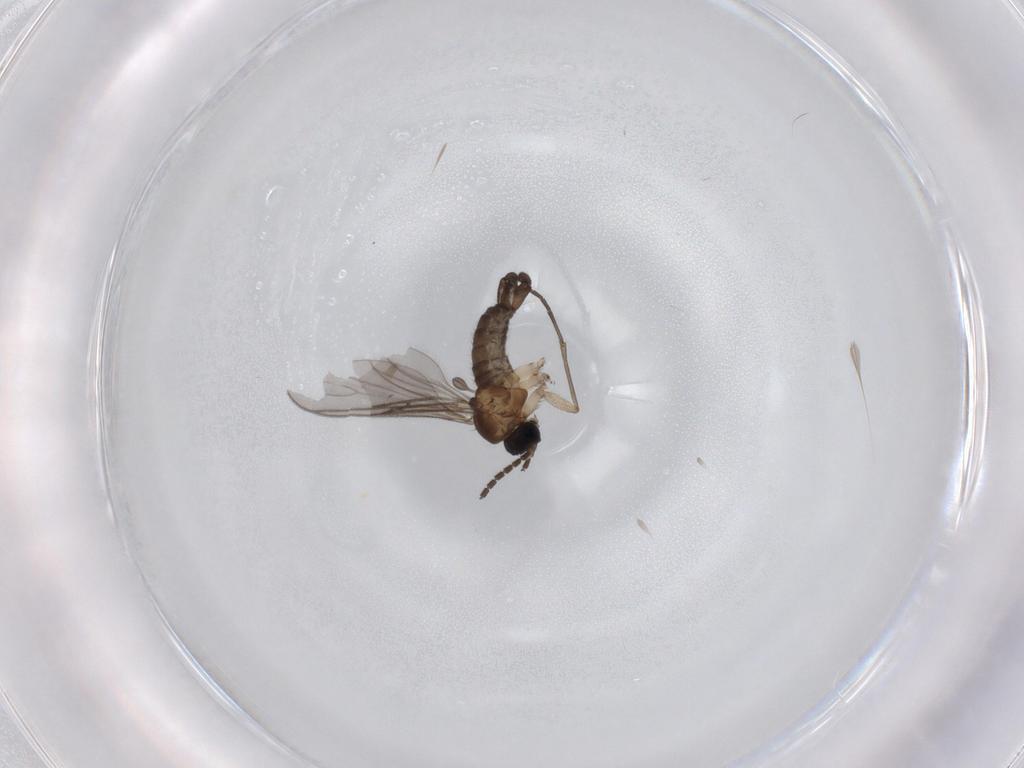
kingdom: Animalia
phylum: Arthropoda
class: Insecta
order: Diptera
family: Sciaridae
